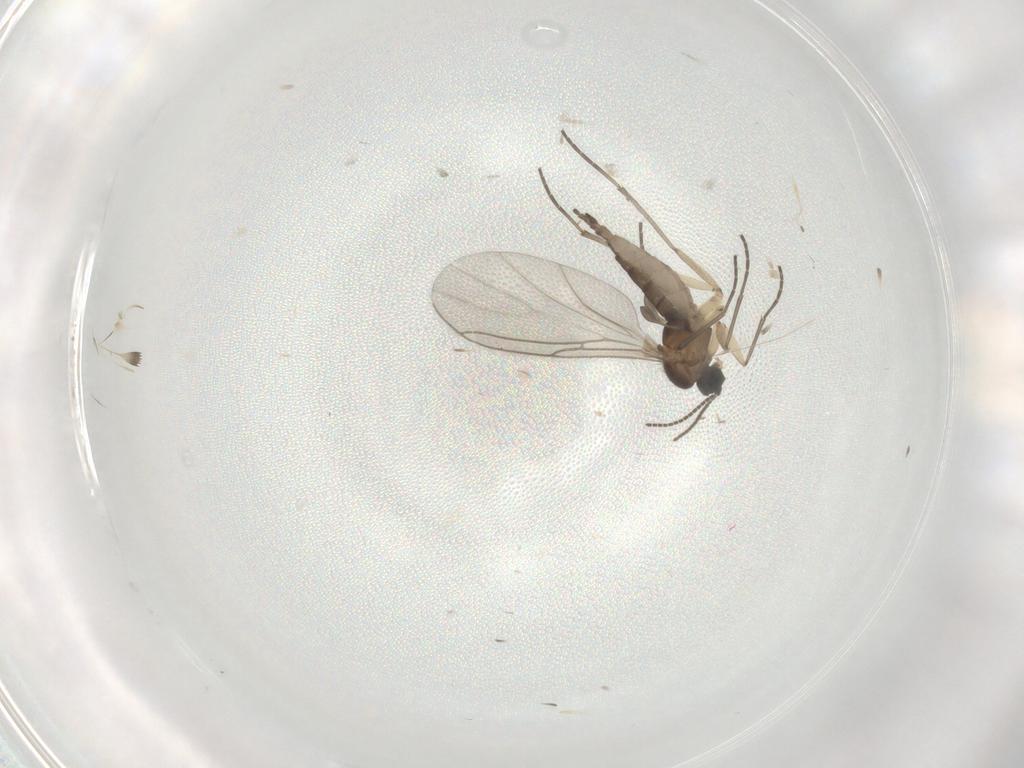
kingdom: Animalia
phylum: Arthropoda
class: Insecta
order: Diptera
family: Sciaridae
